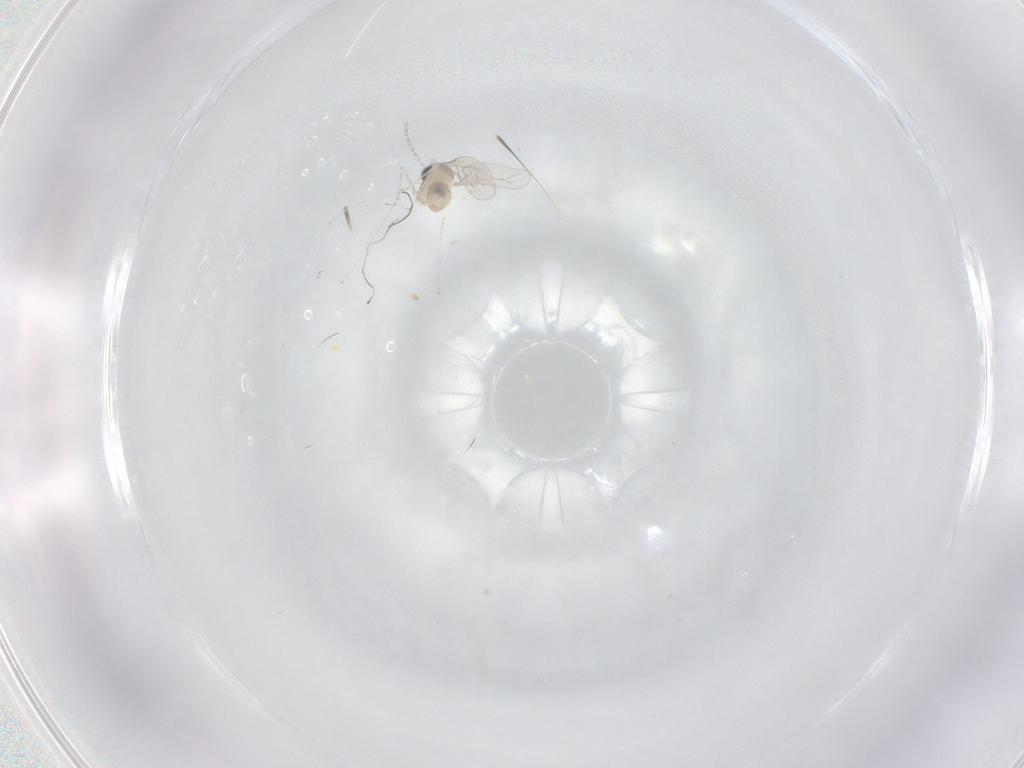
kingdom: Animalia
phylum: Arthropoda
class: Insecta
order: Diptera
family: Cecidomyiidae
